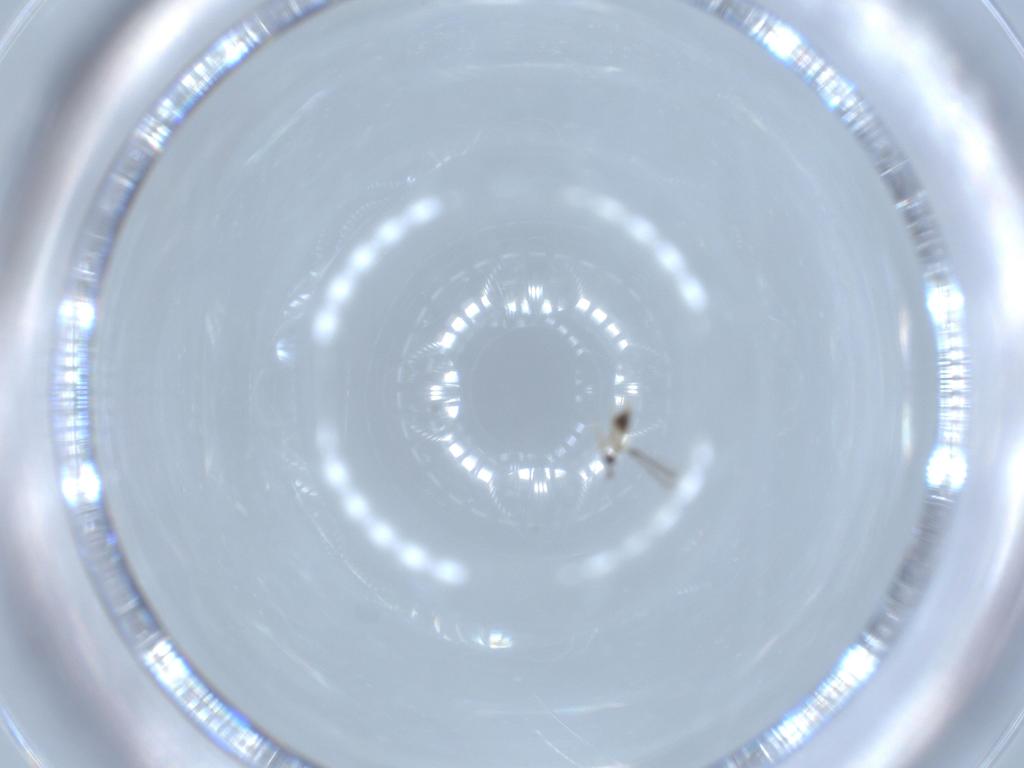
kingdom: Animalia
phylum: Arthropoda
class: Insecta
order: Hymenoptera
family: Mymaridae
